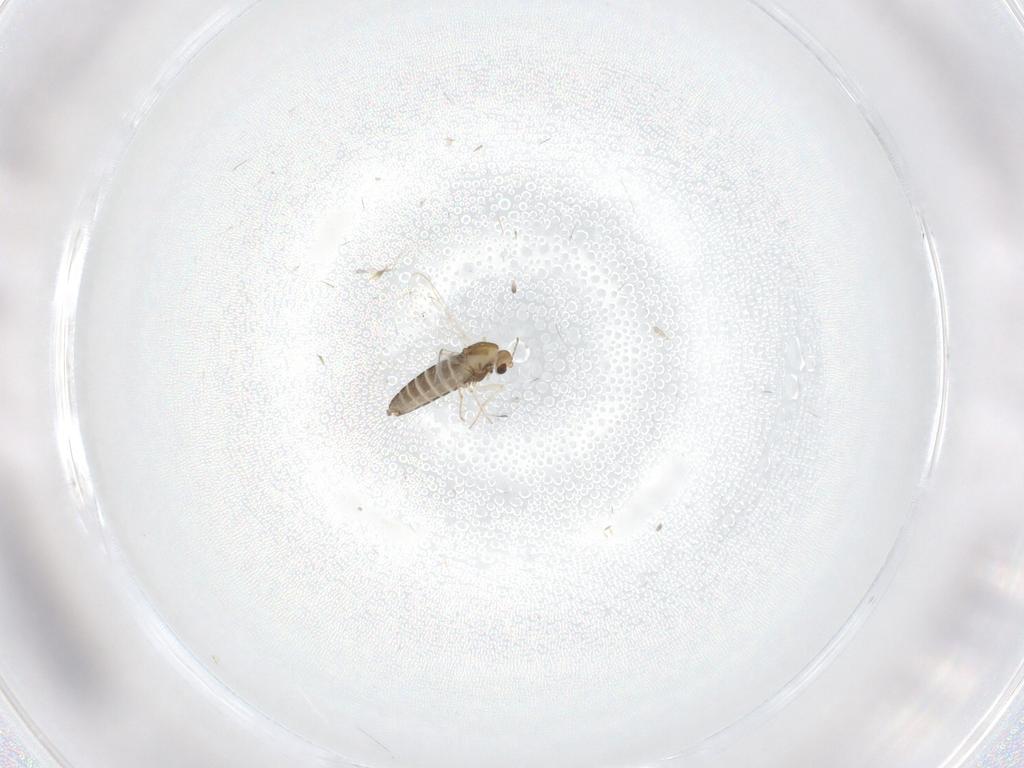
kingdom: Animalia
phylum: Arthropoda
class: Insecta
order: Diptera
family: Chironomidae
